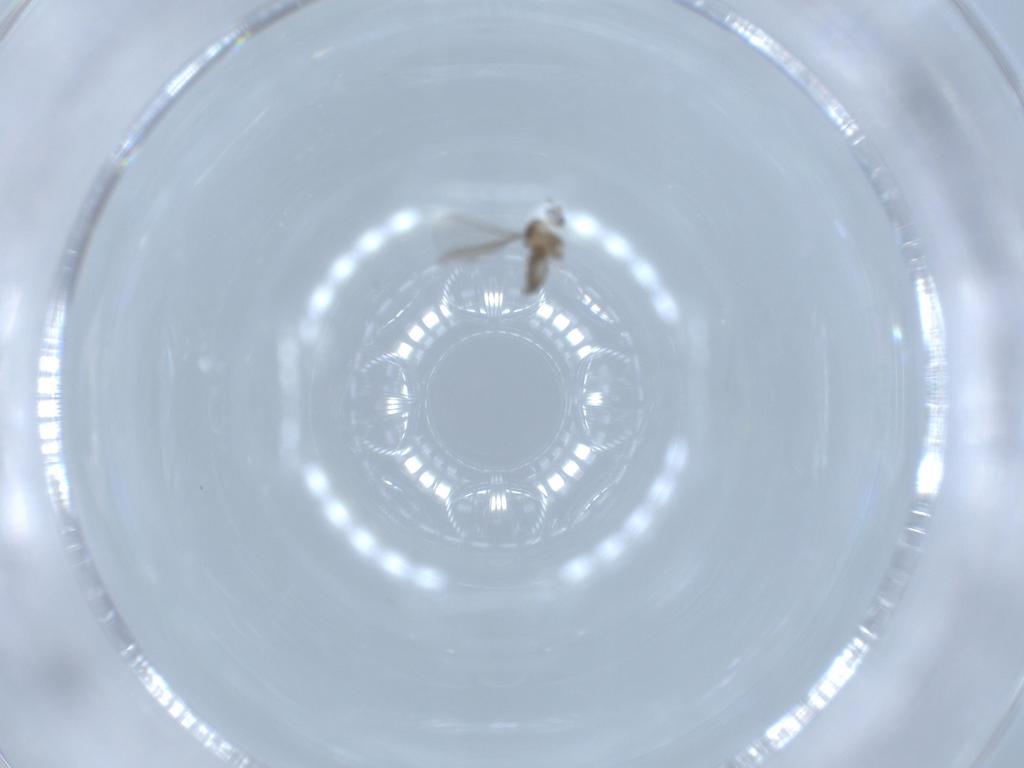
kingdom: Animalia
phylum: Arthropoda
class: Insecta
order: Diptera
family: Cecidomyiidae
